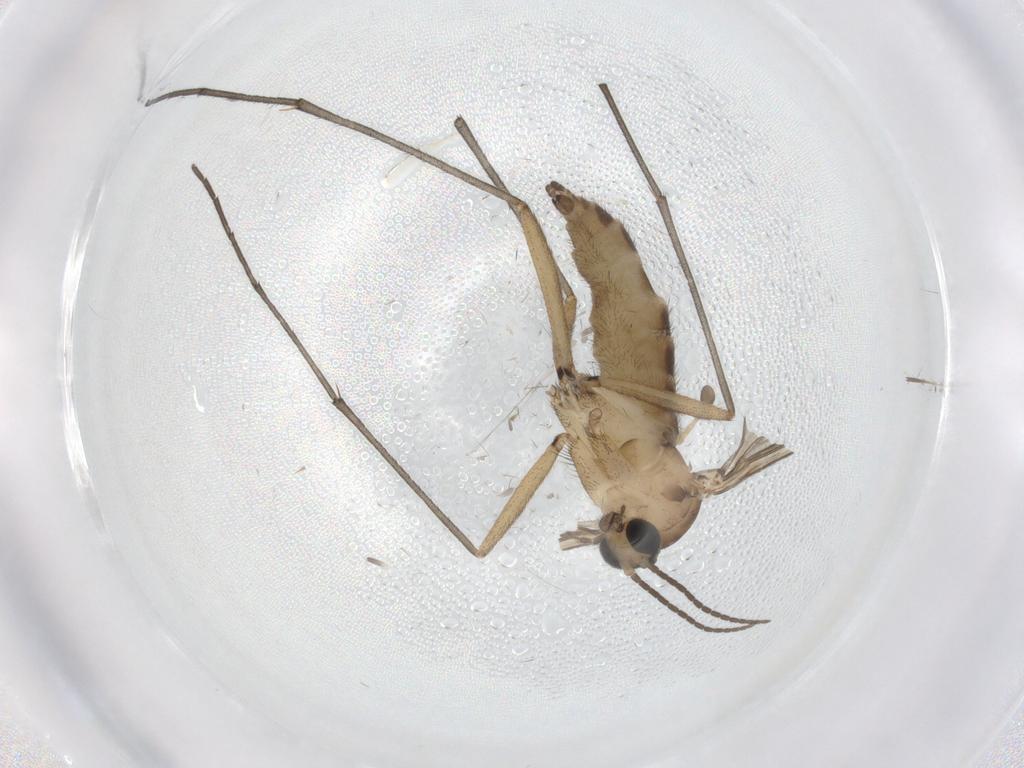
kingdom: Animalia
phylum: Arthropoda
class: Insecta
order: Diptera
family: Sciaridae
